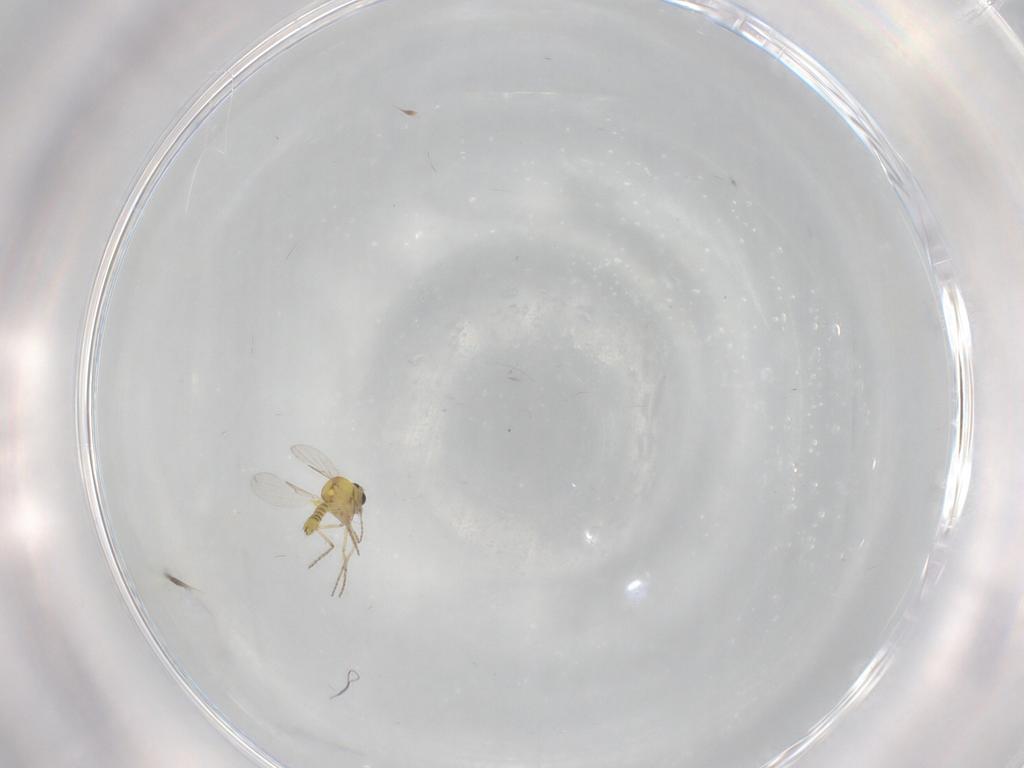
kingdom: Animalia
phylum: Arthropoda
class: Insecta
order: Diptera
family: Ceratopogonidae
